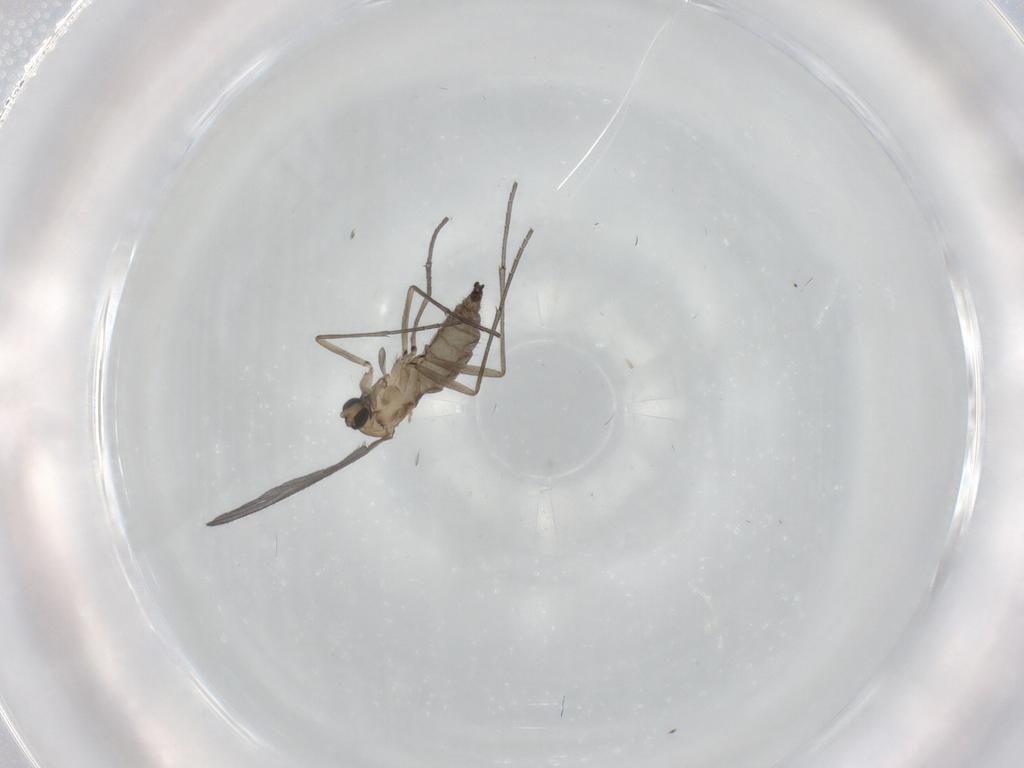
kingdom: Animalia
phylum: Arthropoda
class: Insecta
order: Diptera
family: Sciaridae
